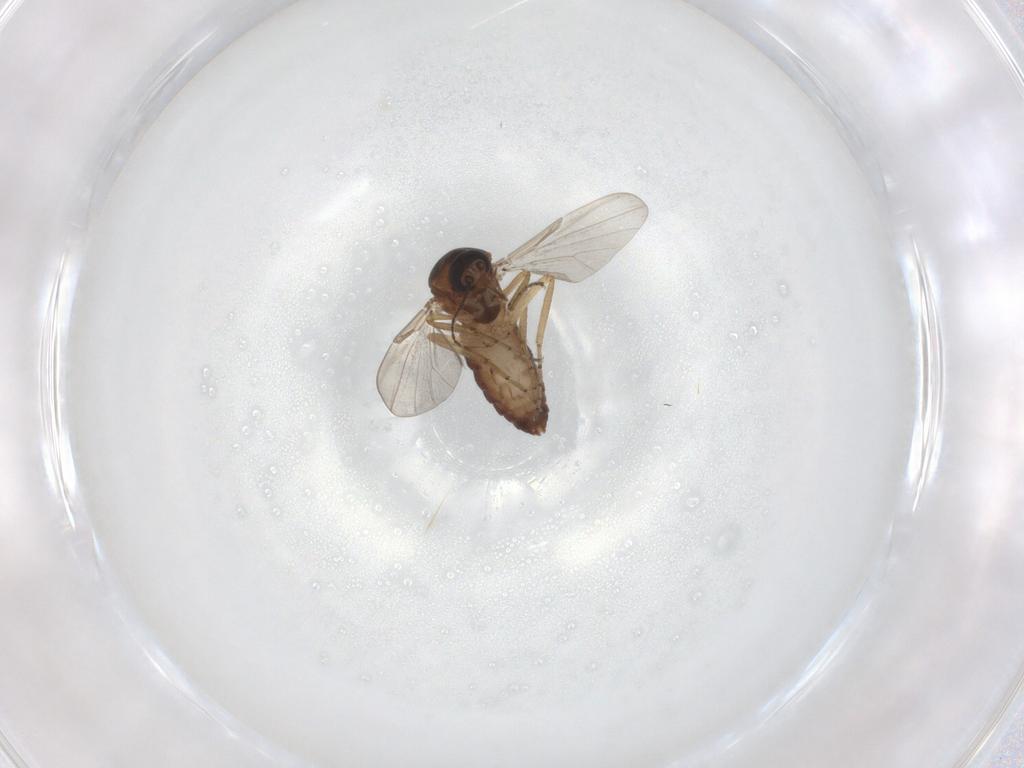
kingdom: Animalia
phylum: Arthropoda
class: Insecta
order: Diptera
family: Ceratopogonidae
